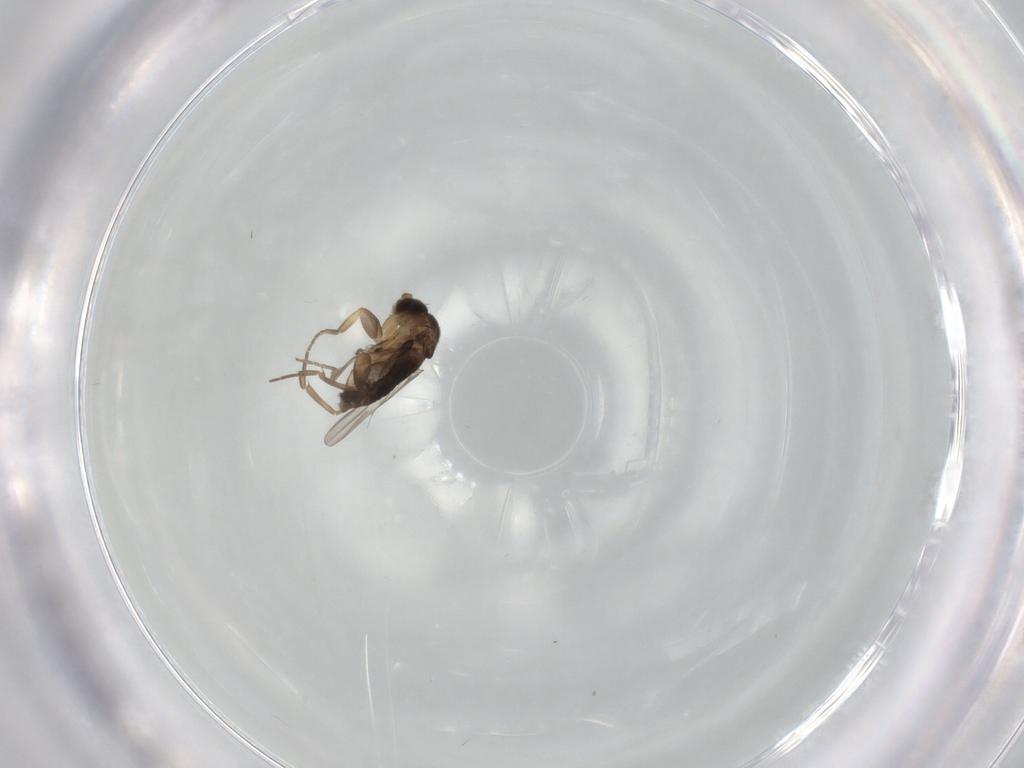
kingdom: Animalia
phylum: Arthropoda
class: Insecta
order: Diptera
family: Phoridae
